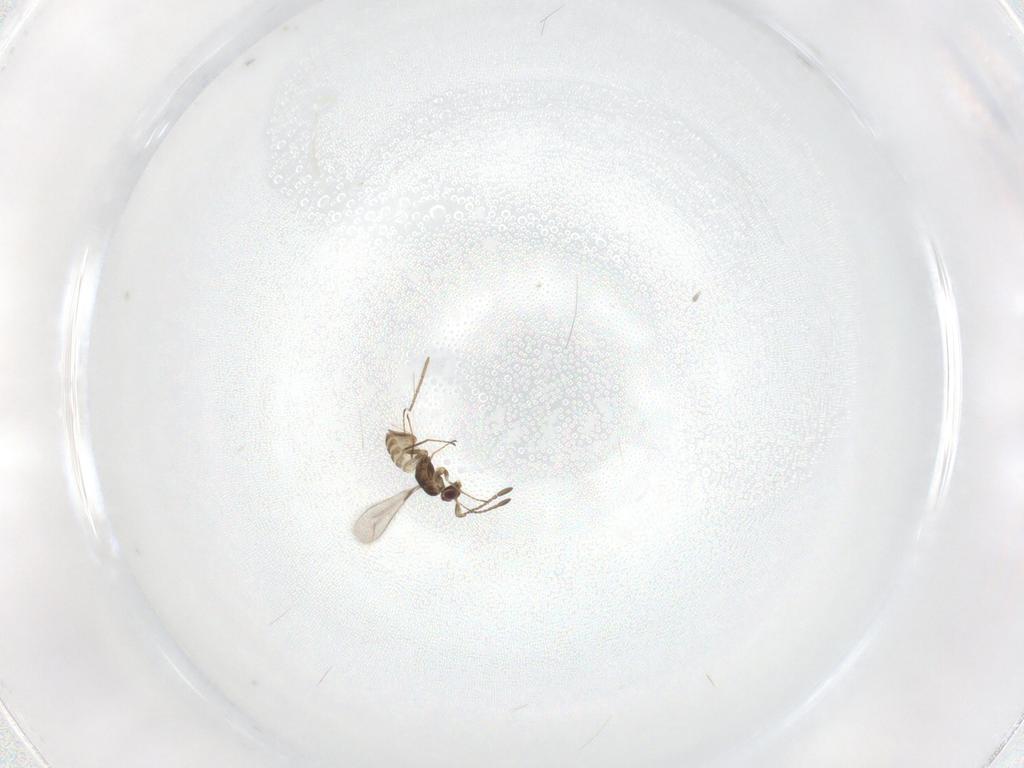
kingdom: Animalia
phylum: Arthropoda
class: Insecta
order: Hymenoptera
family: Mymaridae
